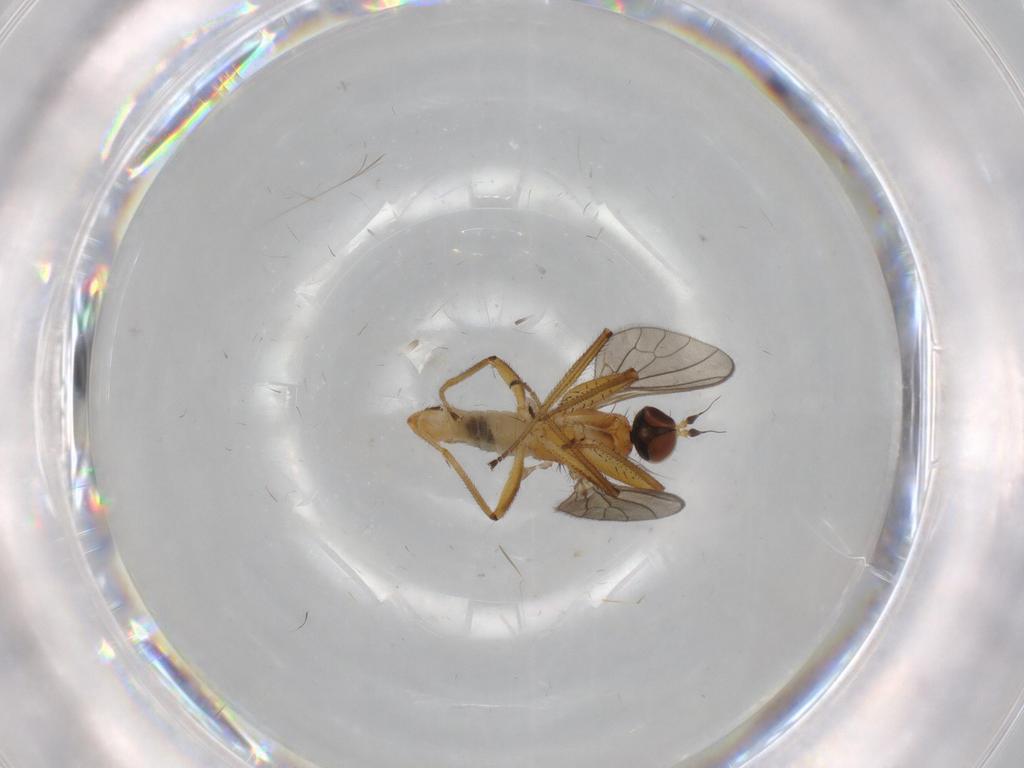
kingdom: Animalia
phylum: Arthropoda
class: Insecta
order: Diptera
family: Empididae
